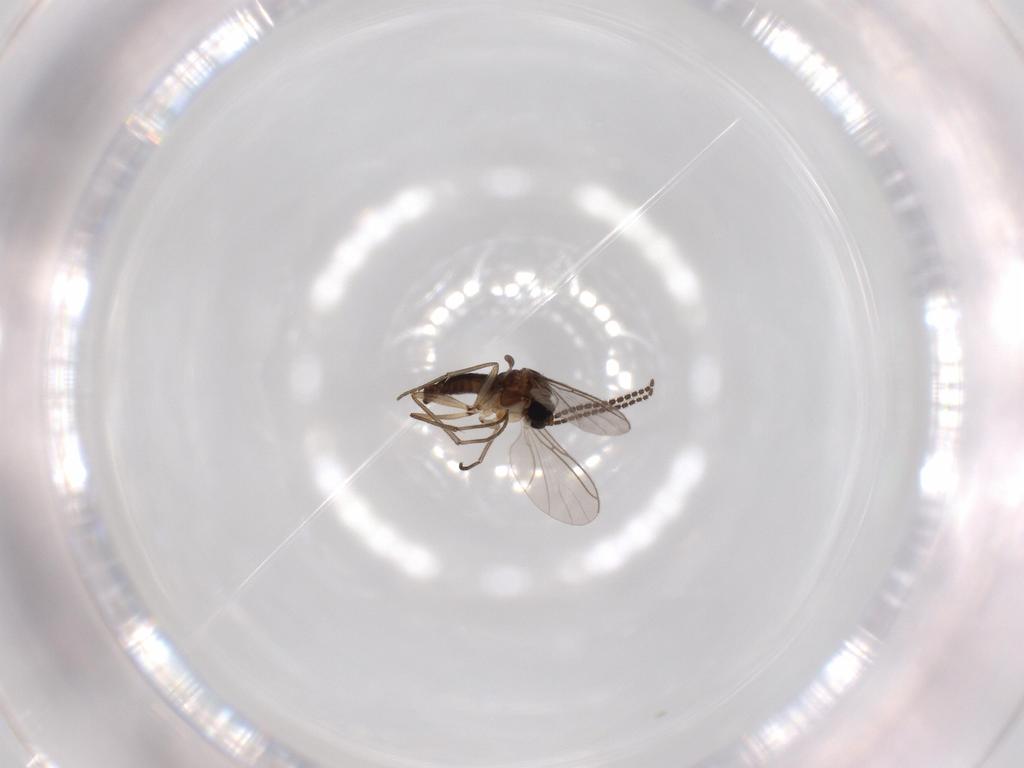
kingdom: Animalia
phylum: Arthropoda
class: Insecta
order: Diptera
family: Sciaridae
